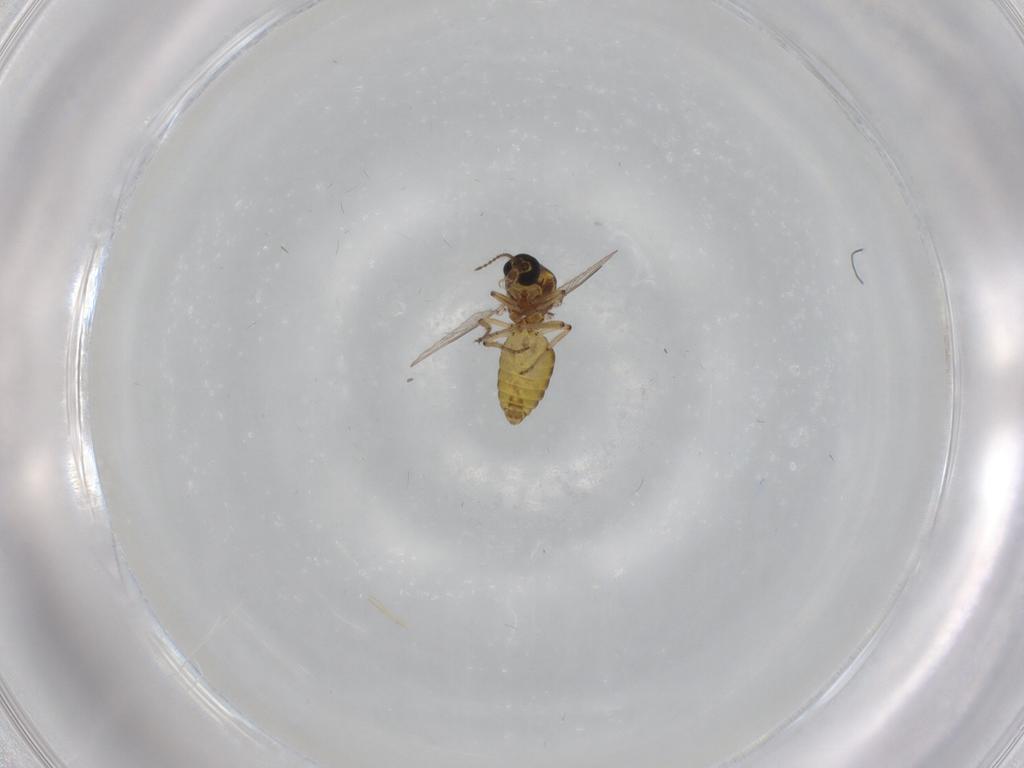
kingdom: Animalia
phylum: Arthropoda
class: Insecta
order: Diptera
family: Ceratopogonidae
